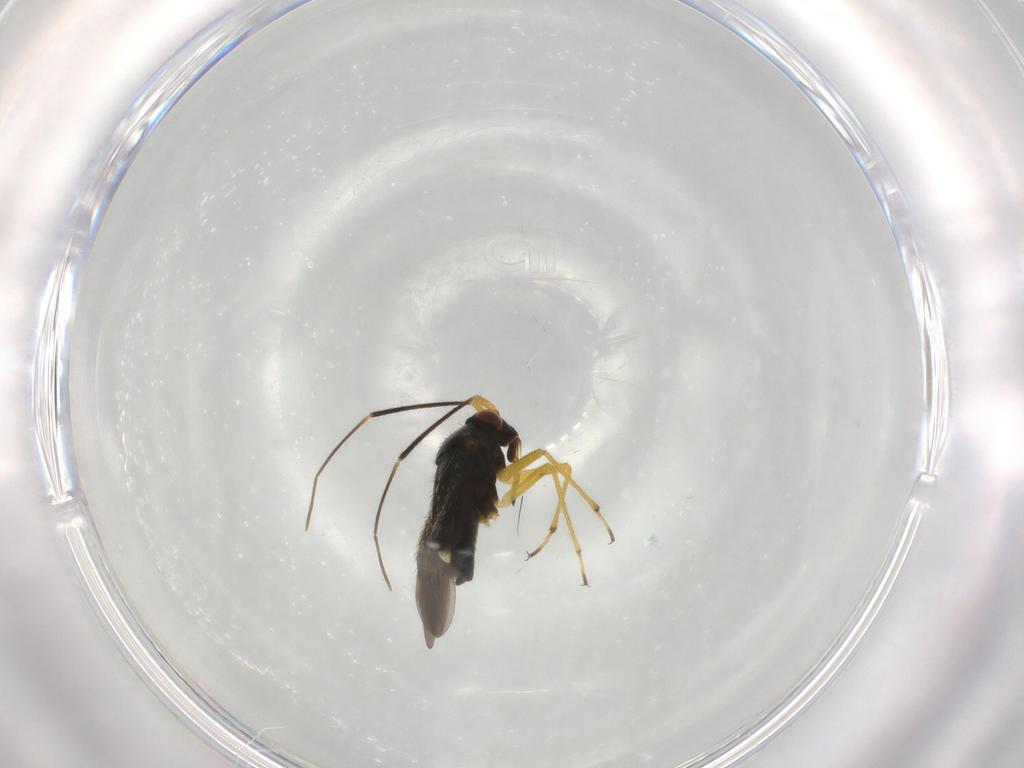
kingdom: Animalia
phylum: Arthropoda
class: Insecta
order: Hemiptera
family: Miridae
